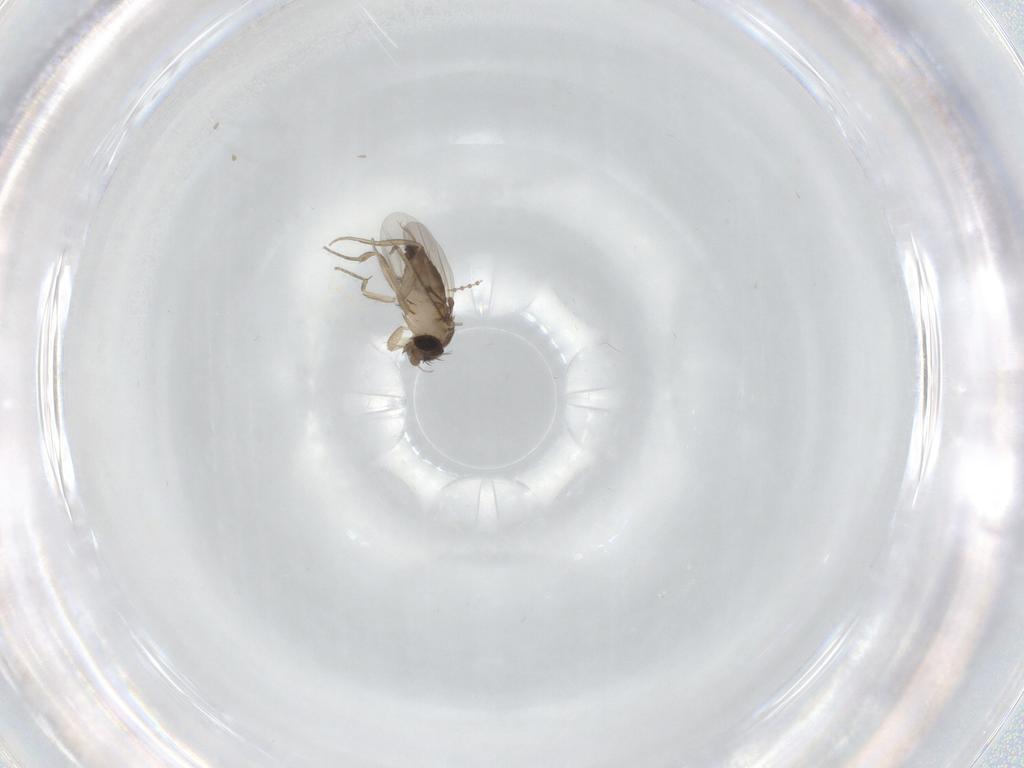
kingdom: Animalia
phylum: Arthropoda
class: Insecta
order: Diptera
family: Phoridae
